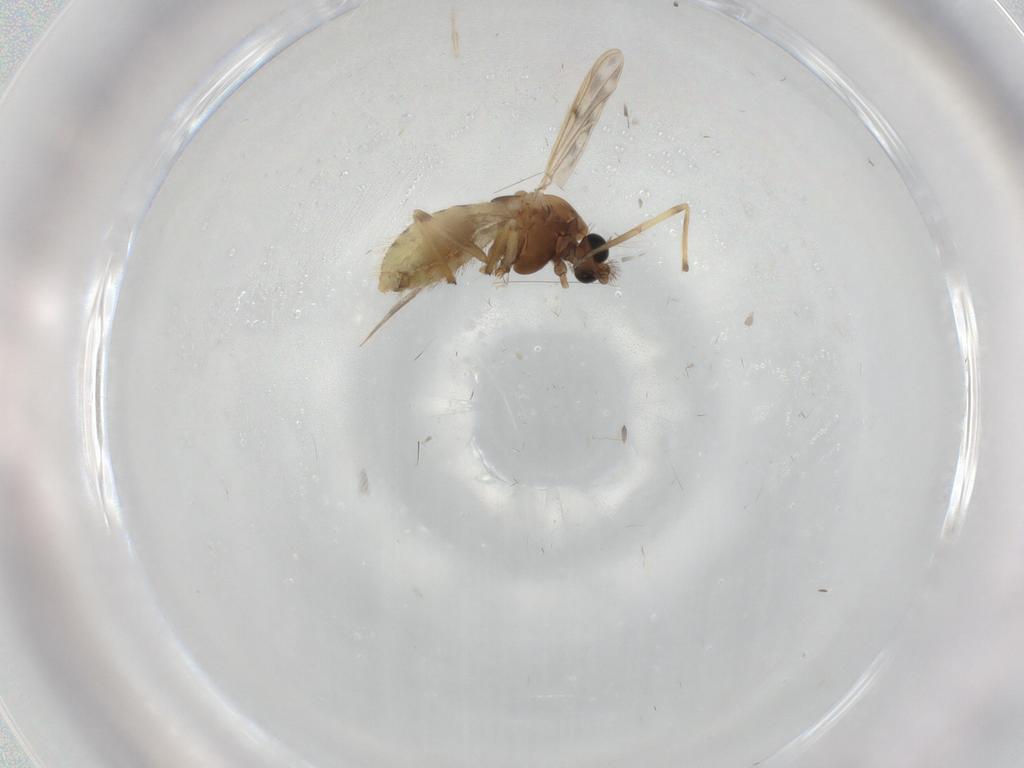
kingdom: Animalia
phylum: Arthropoda
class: Insecta
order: Diptera
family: Chironomidae
